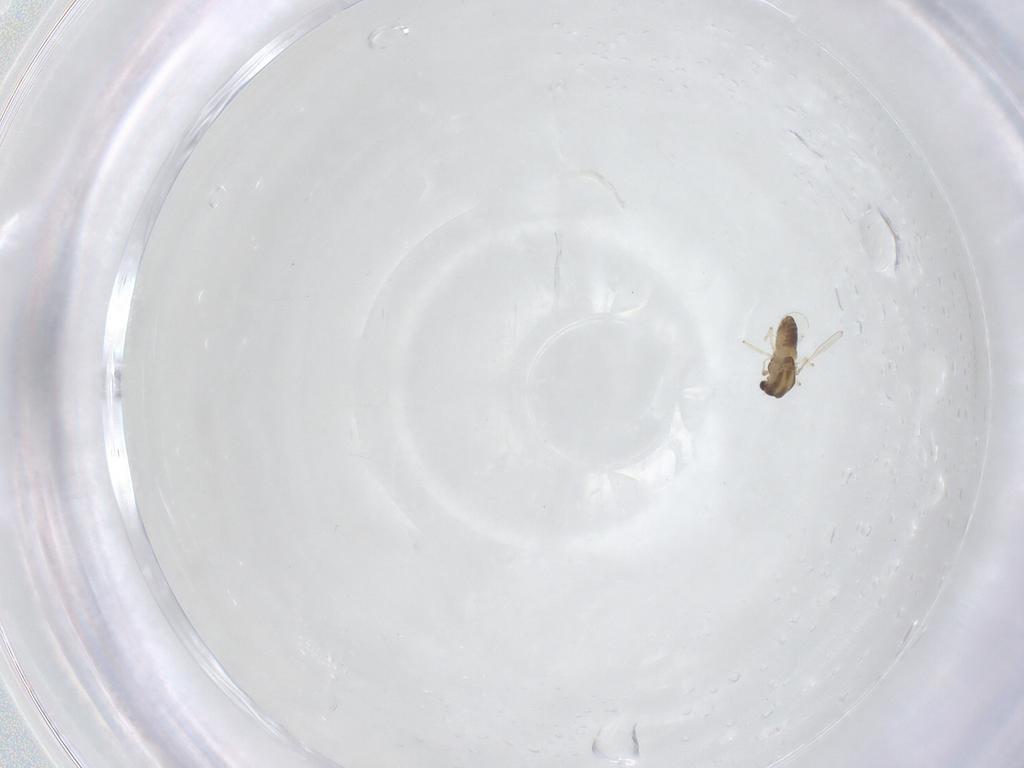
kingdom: Animalia
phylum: Arthropoda
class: Insecta
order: Diptera
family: Chironomidae
